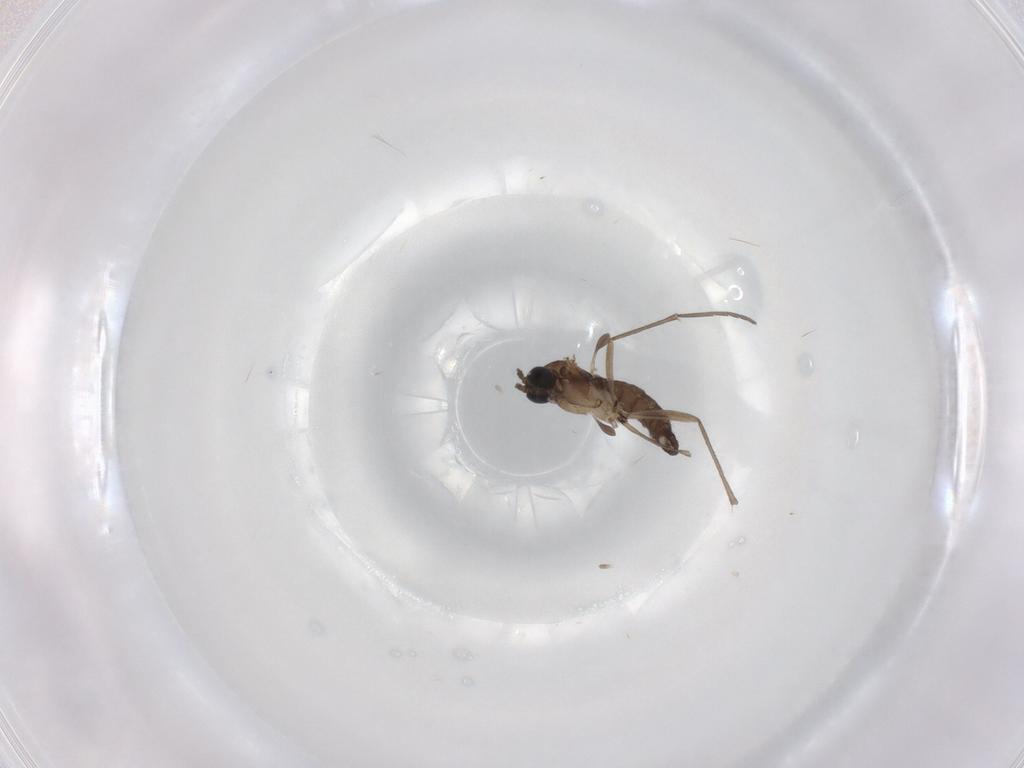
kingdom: Animalia
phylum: Arthropoda
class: Insecta
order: Diptera
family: Sciaridae
